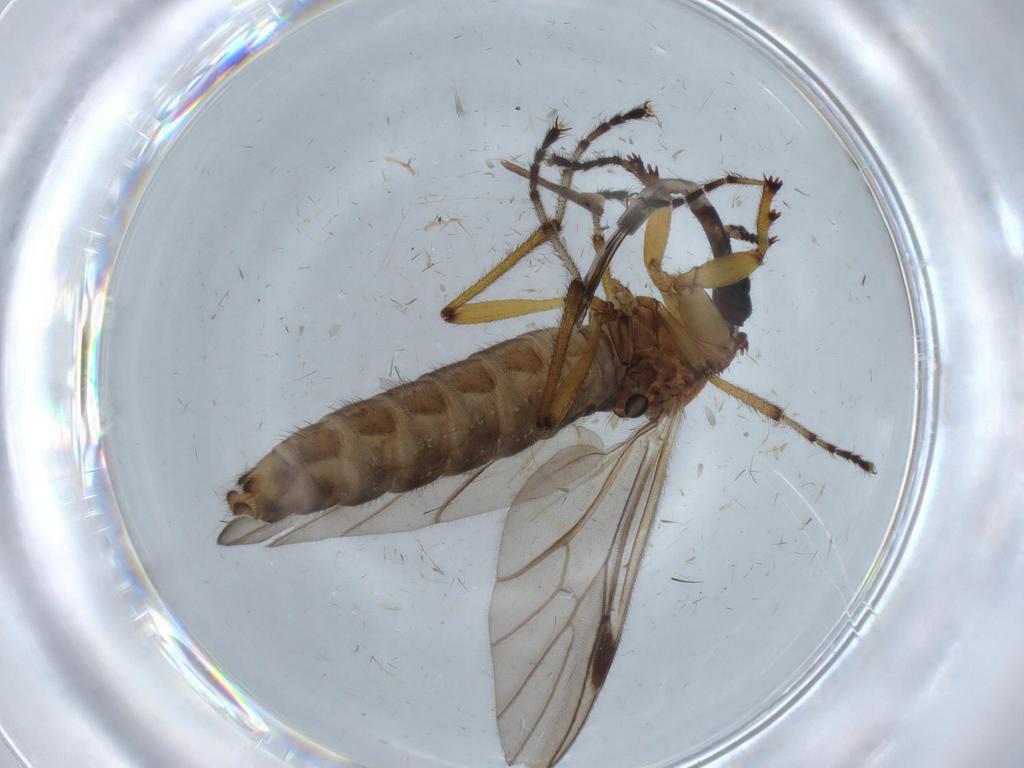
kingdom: Animalia
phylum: Arthropoda
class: Insecta
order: Diptera
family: Bibionidae
